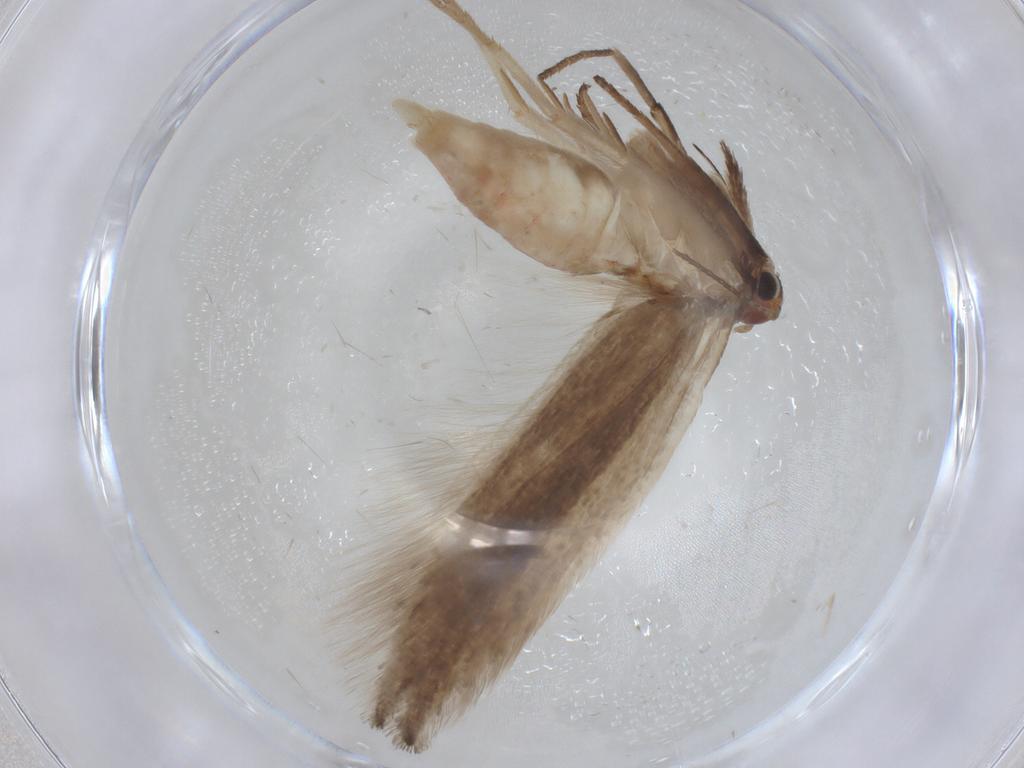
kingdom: Animalia
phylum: Arthropoda
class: Insecta
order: Lepidoptera
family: Gelechiidae
